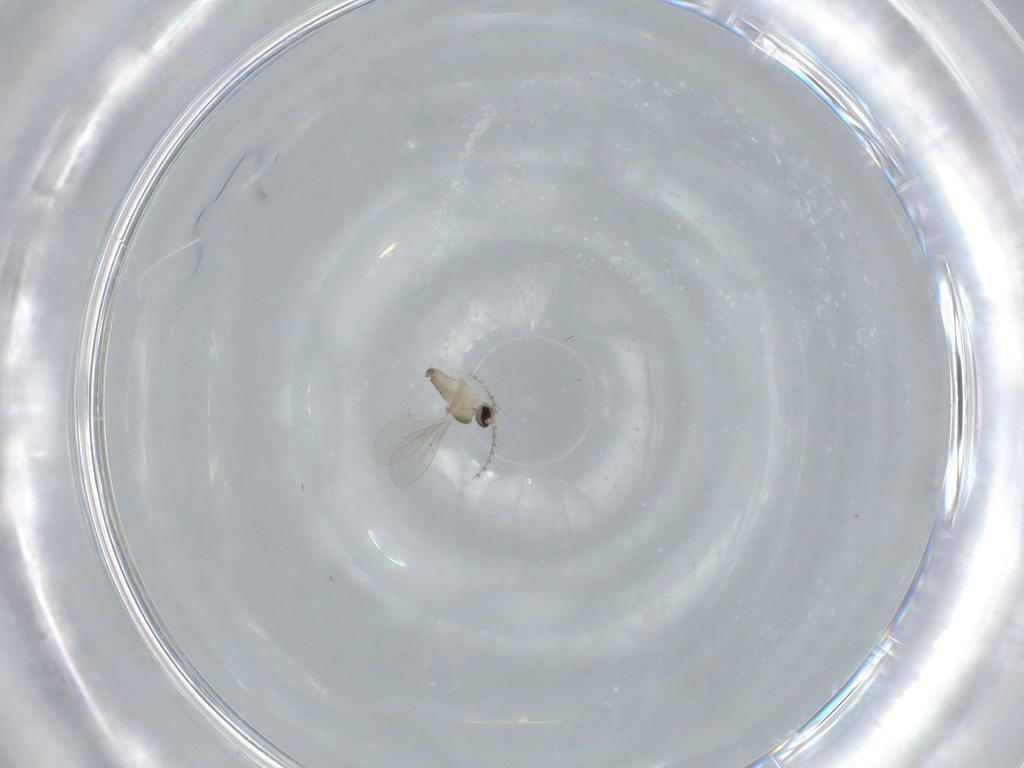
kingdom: Animalia
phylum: Arthropoda
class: Insecta
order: Diptera
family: Cecidomyiidae
